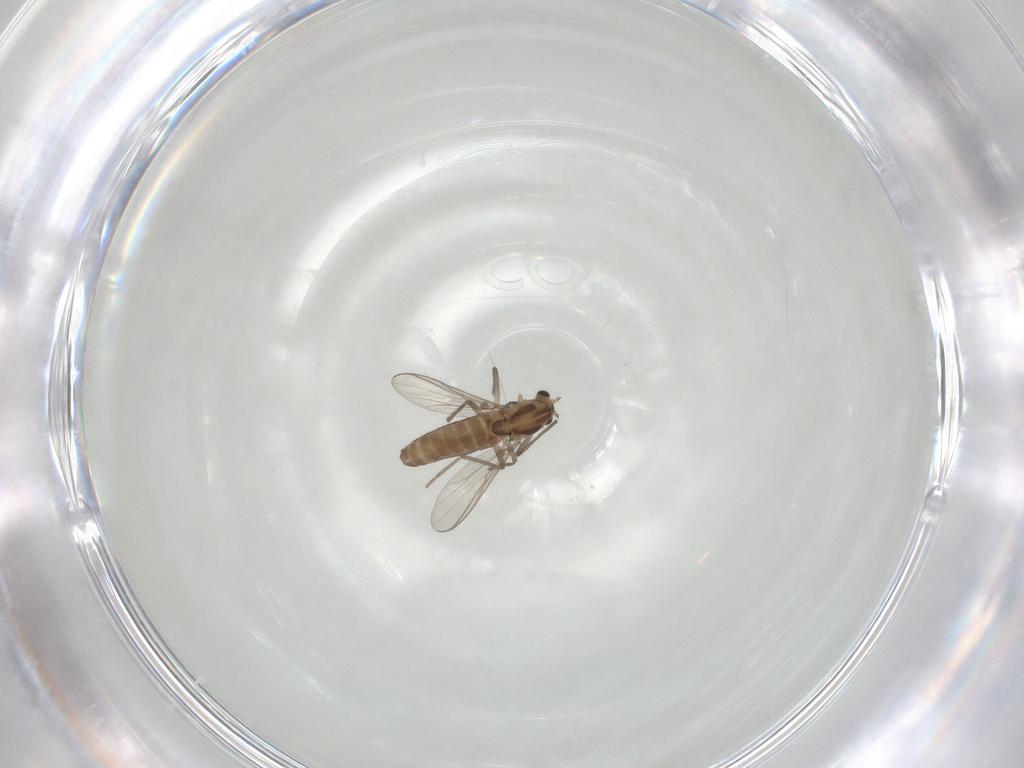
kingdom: Animalia
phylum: Arthropoda
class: Insecta
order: Diptera
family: Chironomidae
